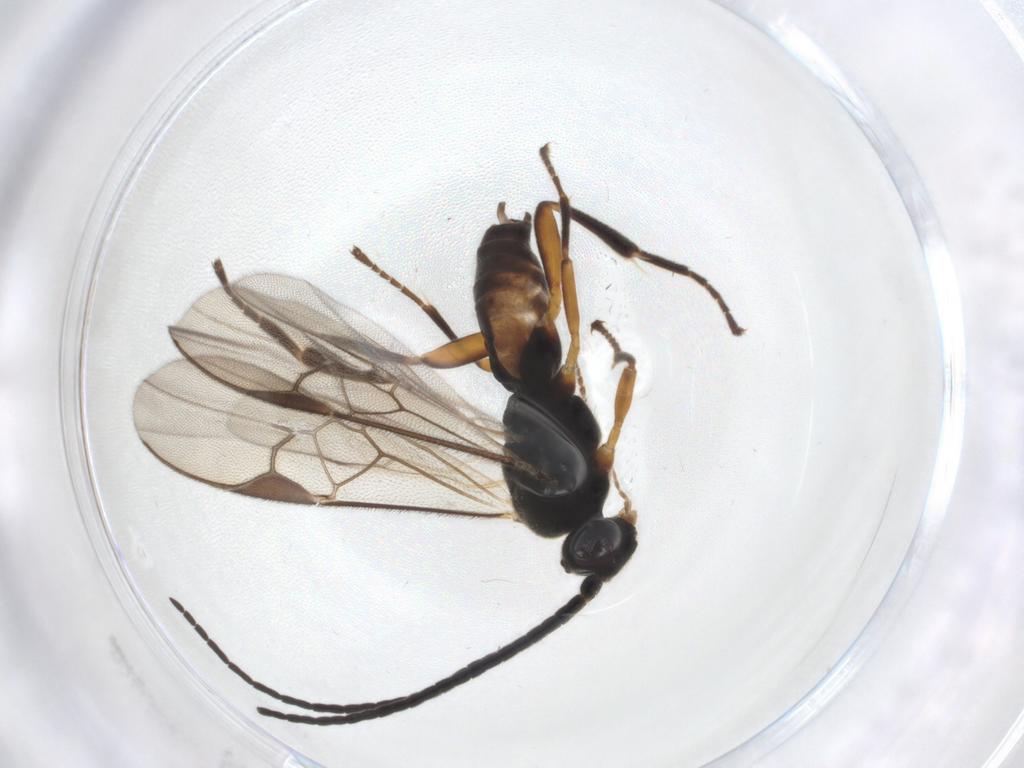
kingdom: Animalia
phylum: Arthropoda
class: Insecta
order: Hymenoptera
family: Braconidae
